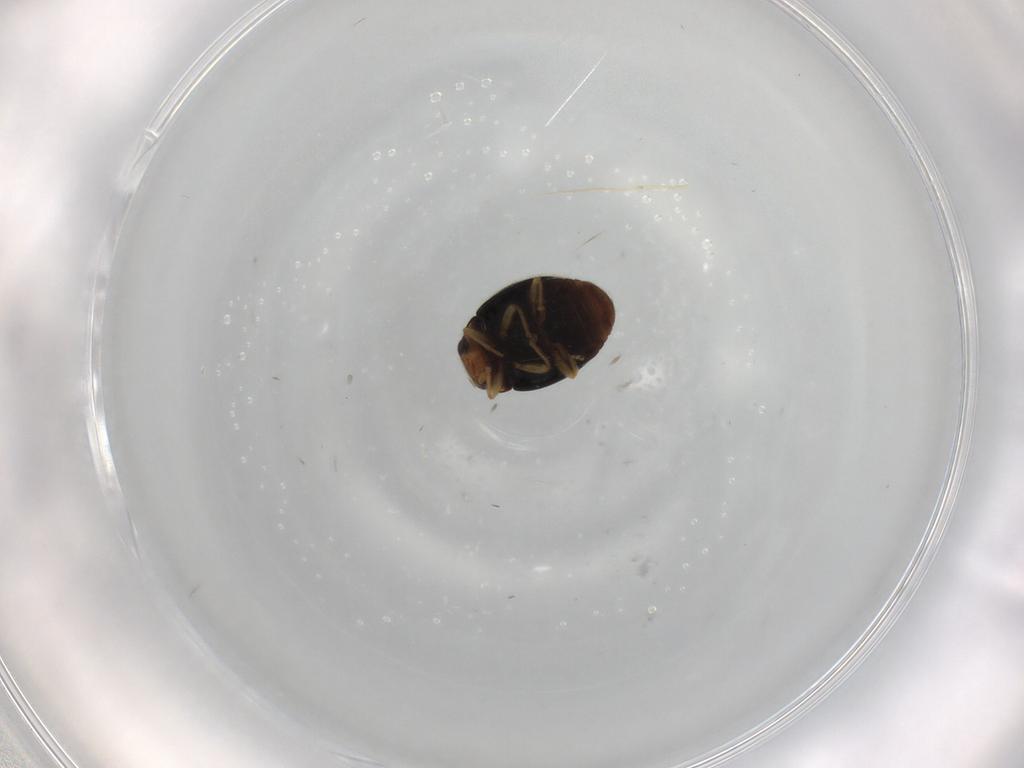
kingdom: Animalia
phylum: Arthropoda
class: Insecta
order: Coleoptera
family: Coccinellidae
